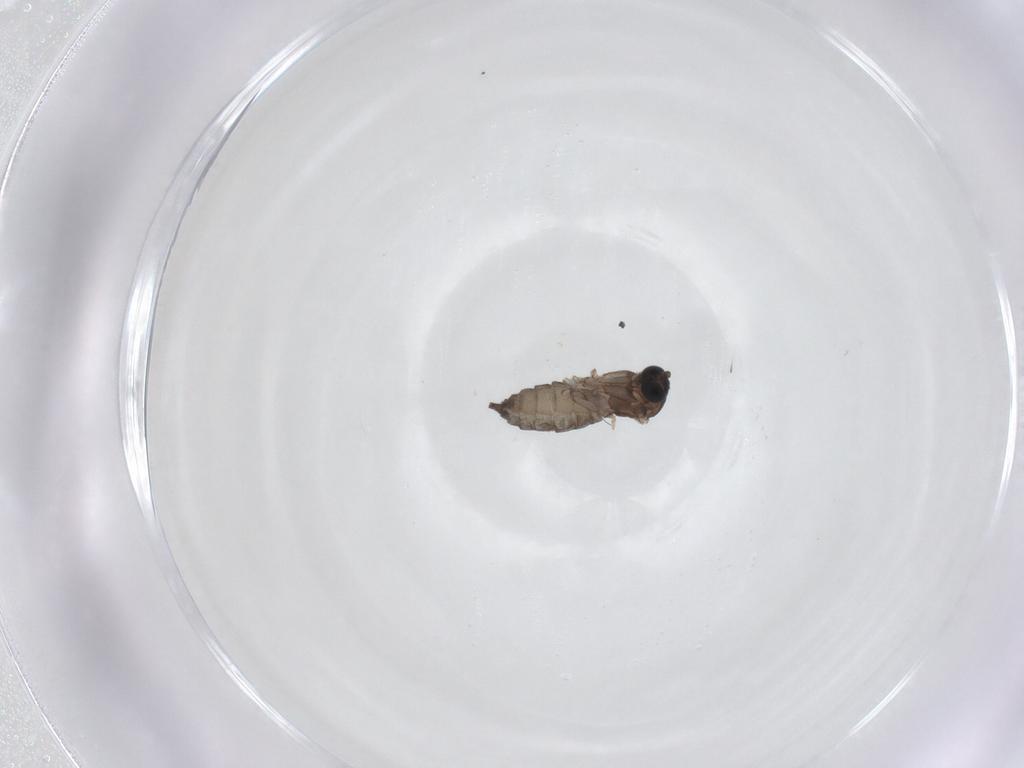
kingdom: Animalia
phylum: Arthropoda
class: Insecta
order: Diptera
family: Sciaridae
